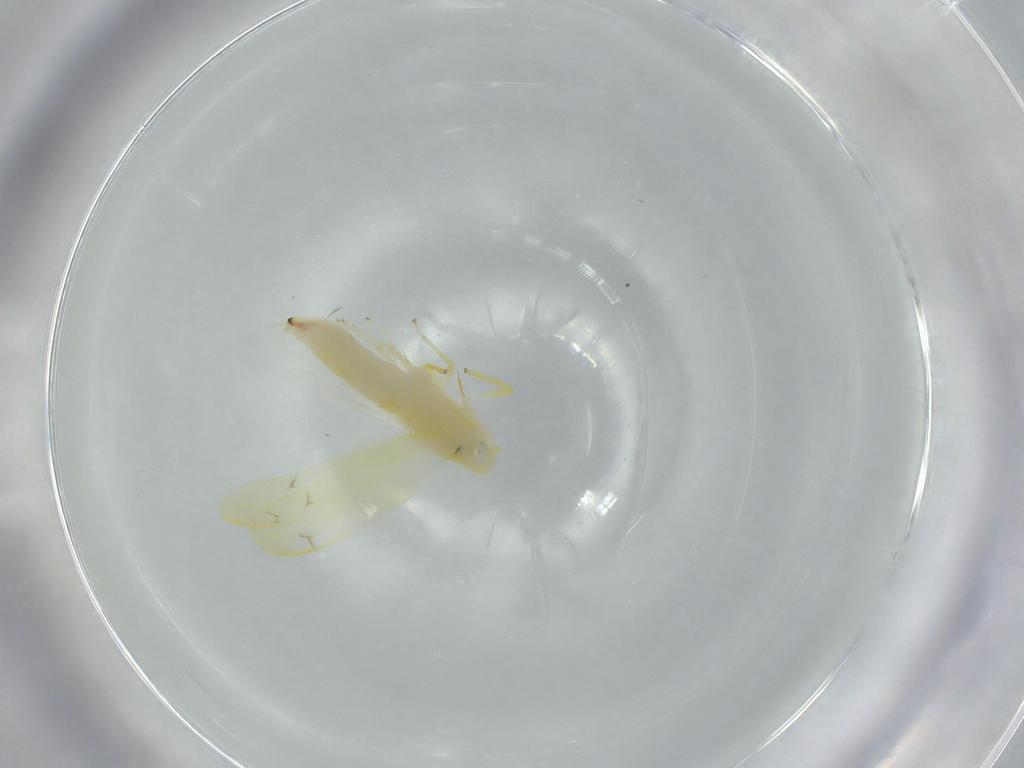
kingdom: Animalia
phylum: Arthropoda
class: Insecta
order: Hemiptera
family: Cicadellidae
